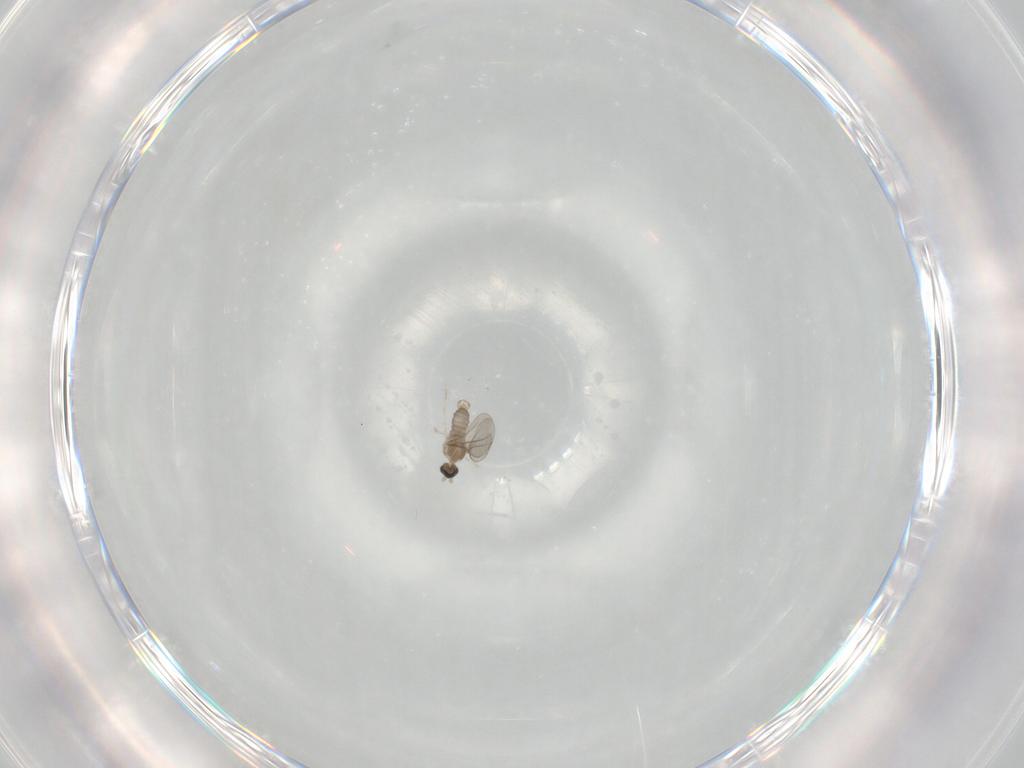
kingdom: Animalia
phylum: Arthropoda
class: Insecta
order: Diptera
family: Cecidomyiidae
